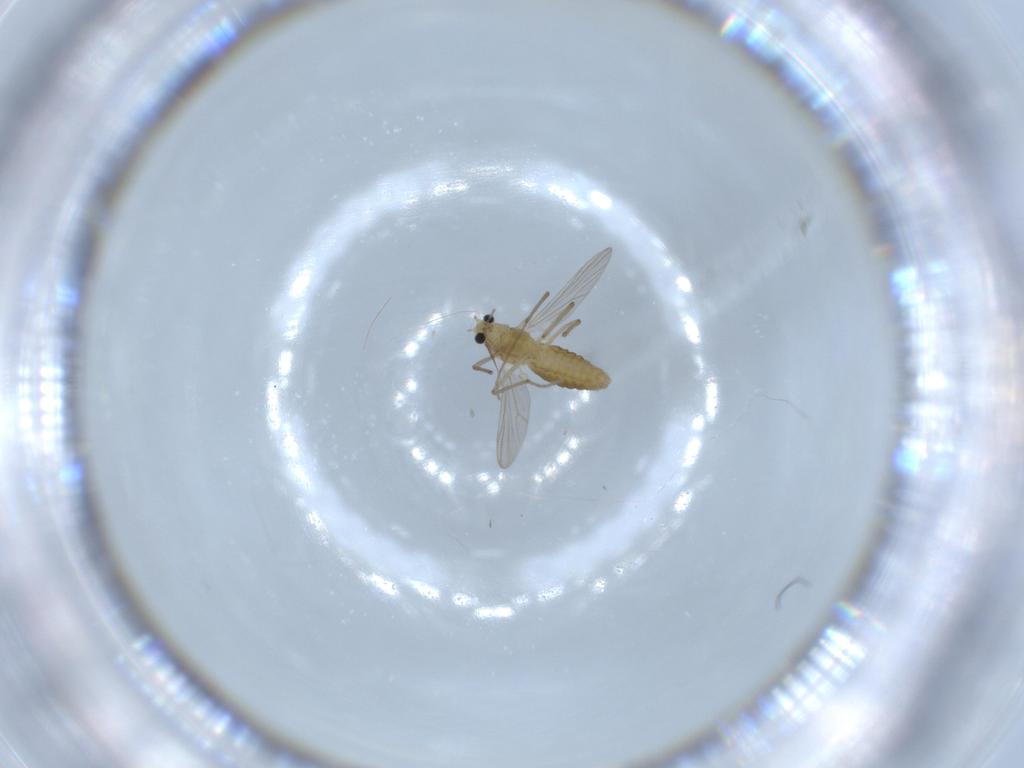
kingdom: Animalia
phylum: Arthropoda
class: Insecta
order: Diptera
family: Chironomidae
